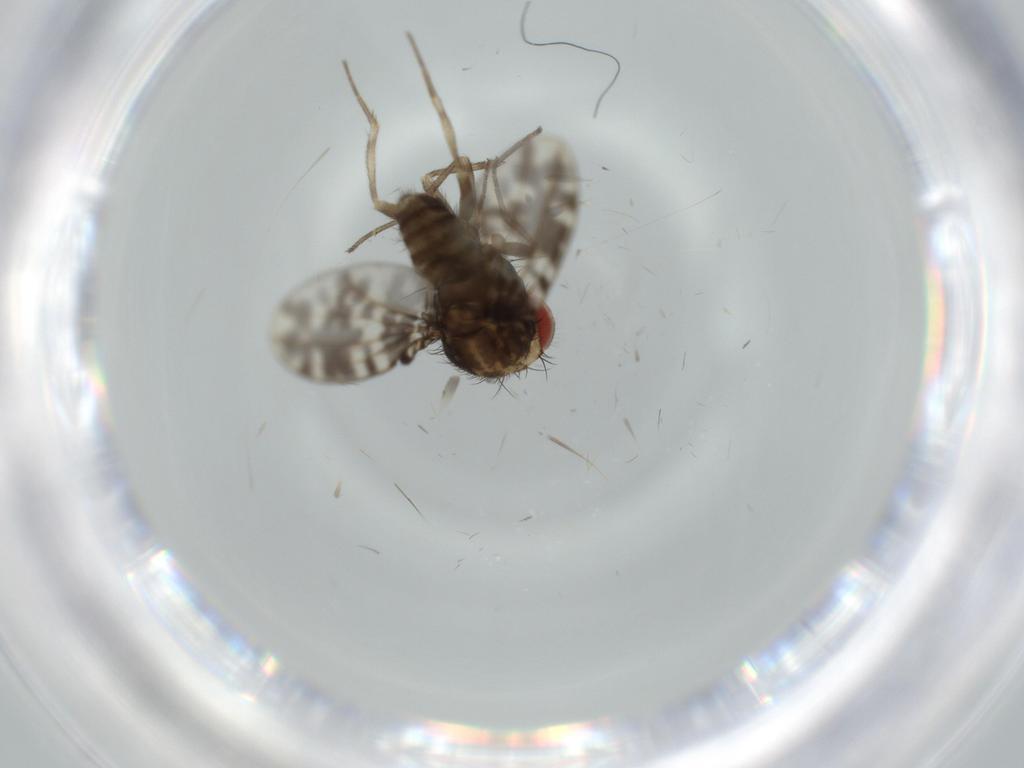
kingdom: Animalia
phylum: Arthropoda
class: Insecta
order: Diptera
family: Drosophilidae
